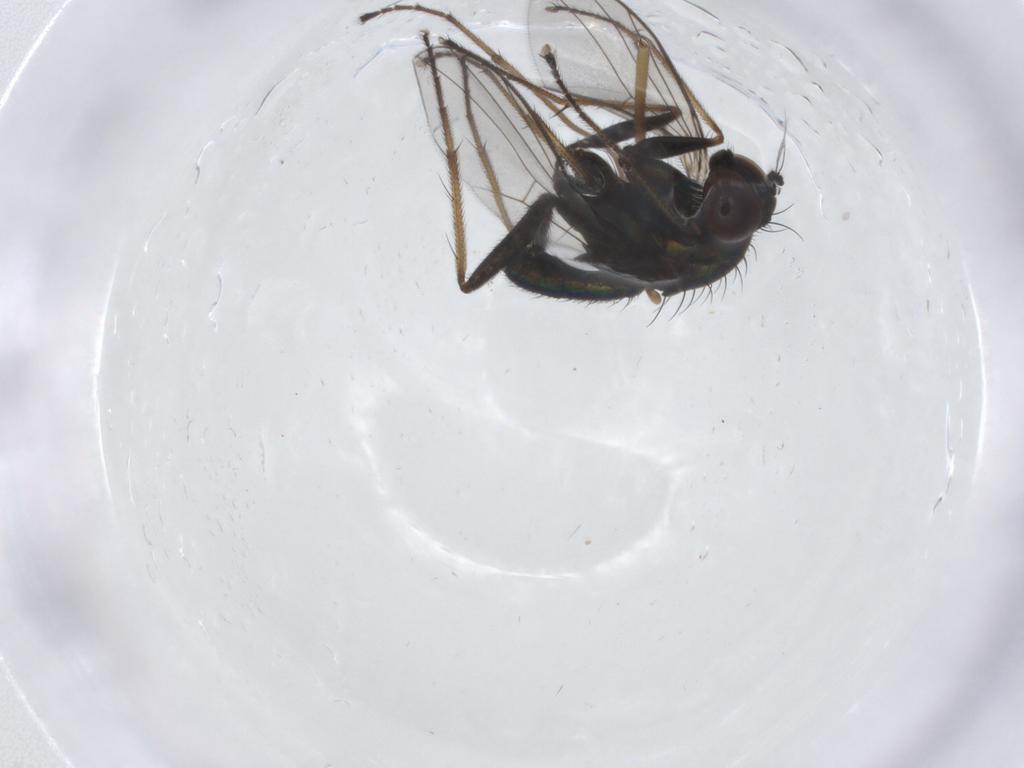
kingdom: Animalia
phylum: Arthropoda
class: Insecta
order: Diptera
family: Dolichopodidae
